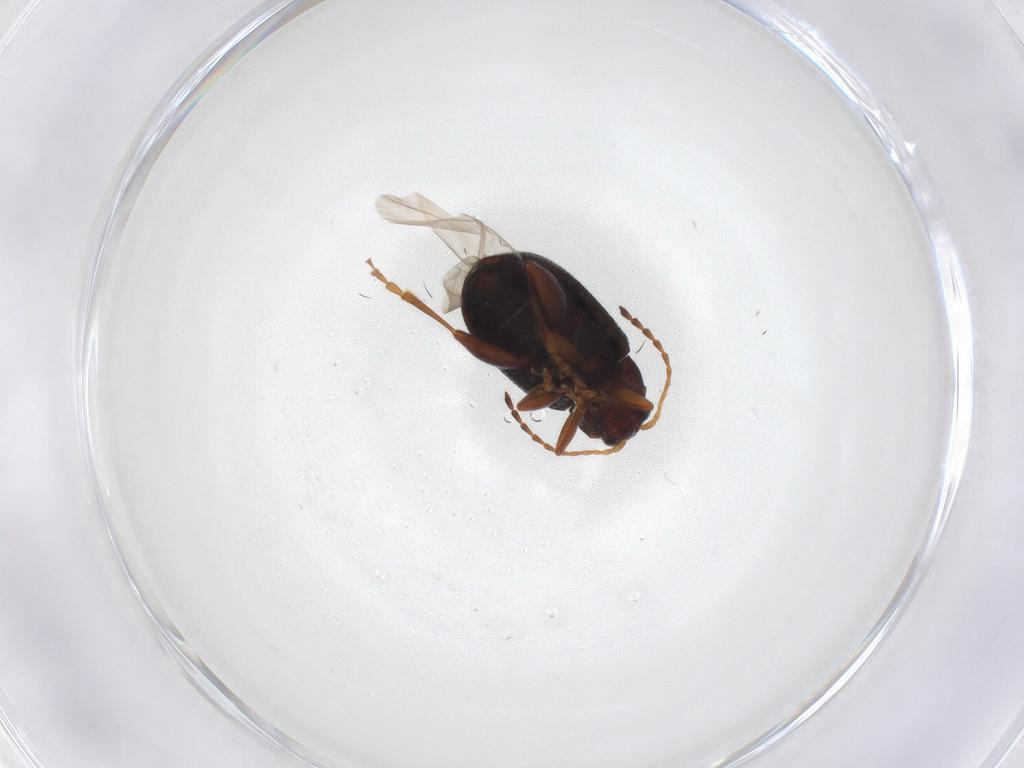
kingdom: Animalia
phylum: Arthropoda
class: Insecta
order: Coleoptera
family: Chrysomelidae
